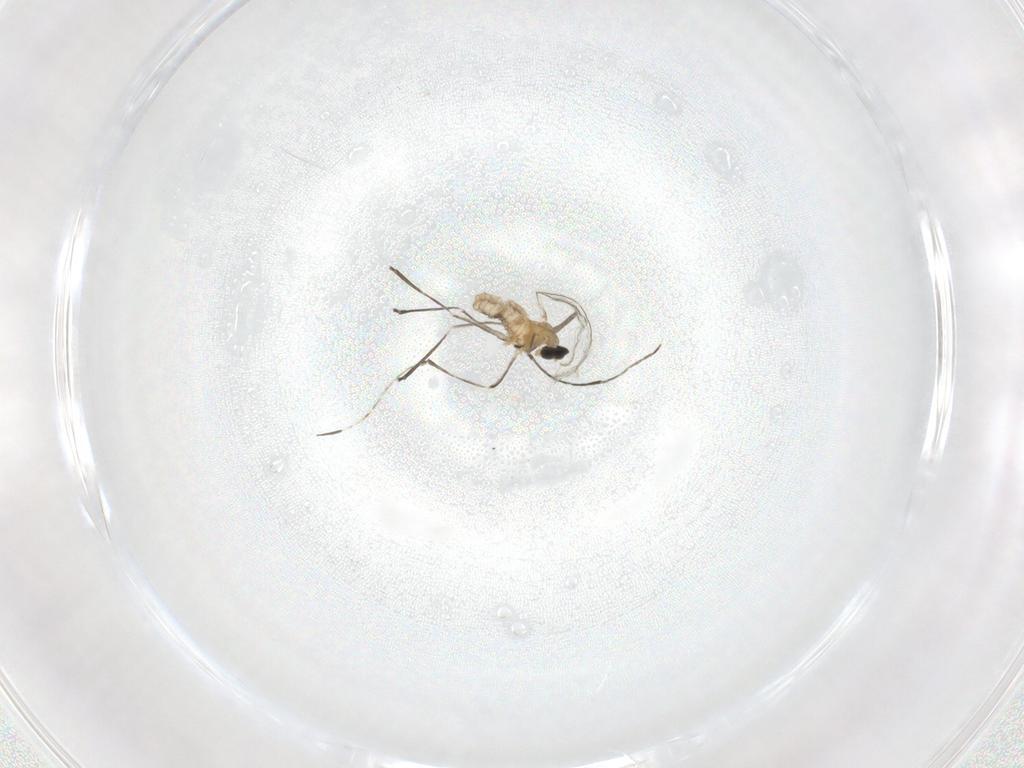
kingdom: Animalia
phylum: Arthropoda
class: Insecta
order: Diptera
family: Cecidomyiidae
